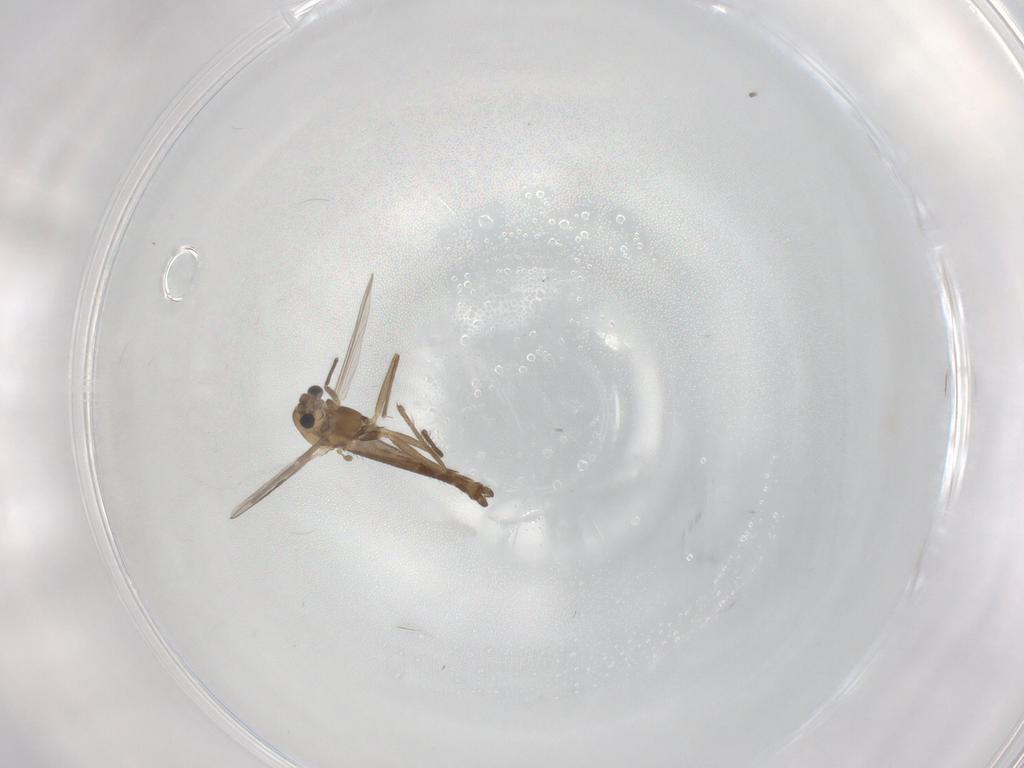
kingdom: Animalia
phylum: Arthropoda
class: Insecta
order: Diptera
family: Chironomidae
